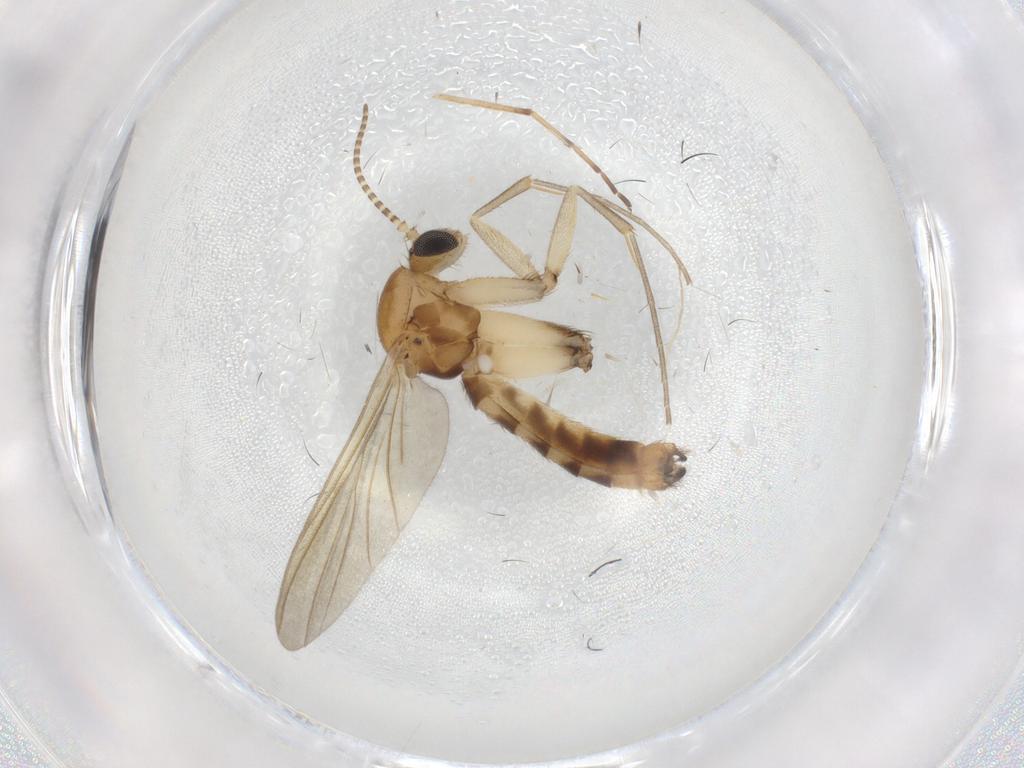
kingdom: Animalia
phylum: Arthropoda
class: Insecta
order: Diptera
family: Mycetophilidae
